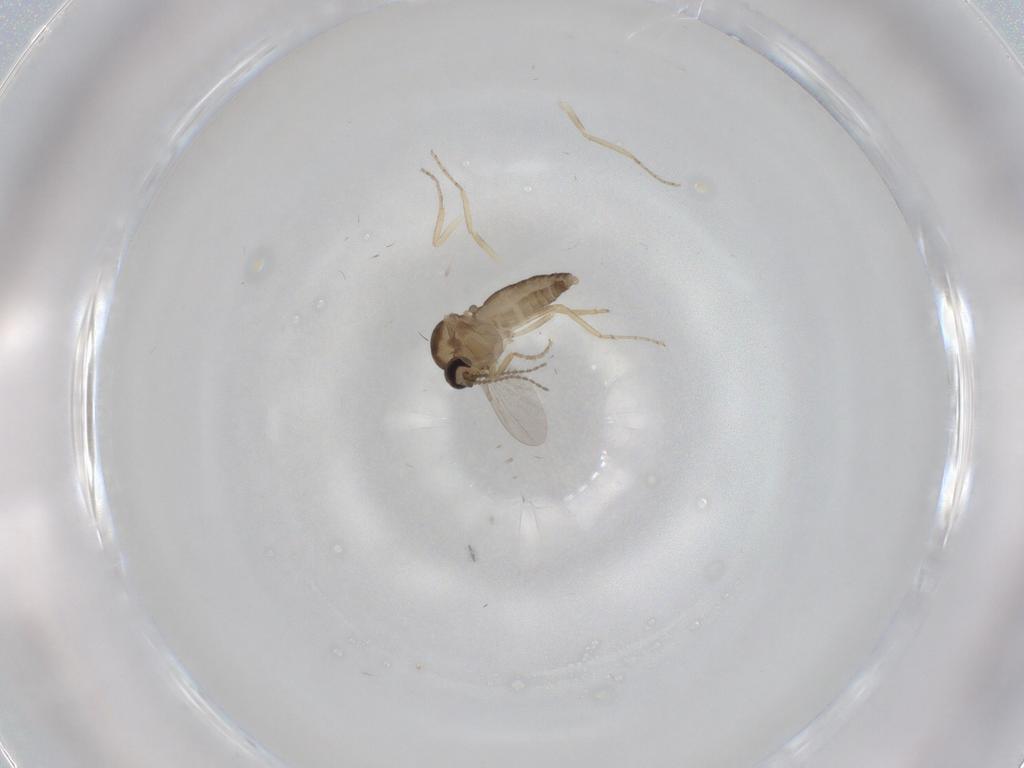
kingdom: Animalia
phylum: Arthropoda
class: Insecta
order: Diptera
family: Ceratopogonidae
